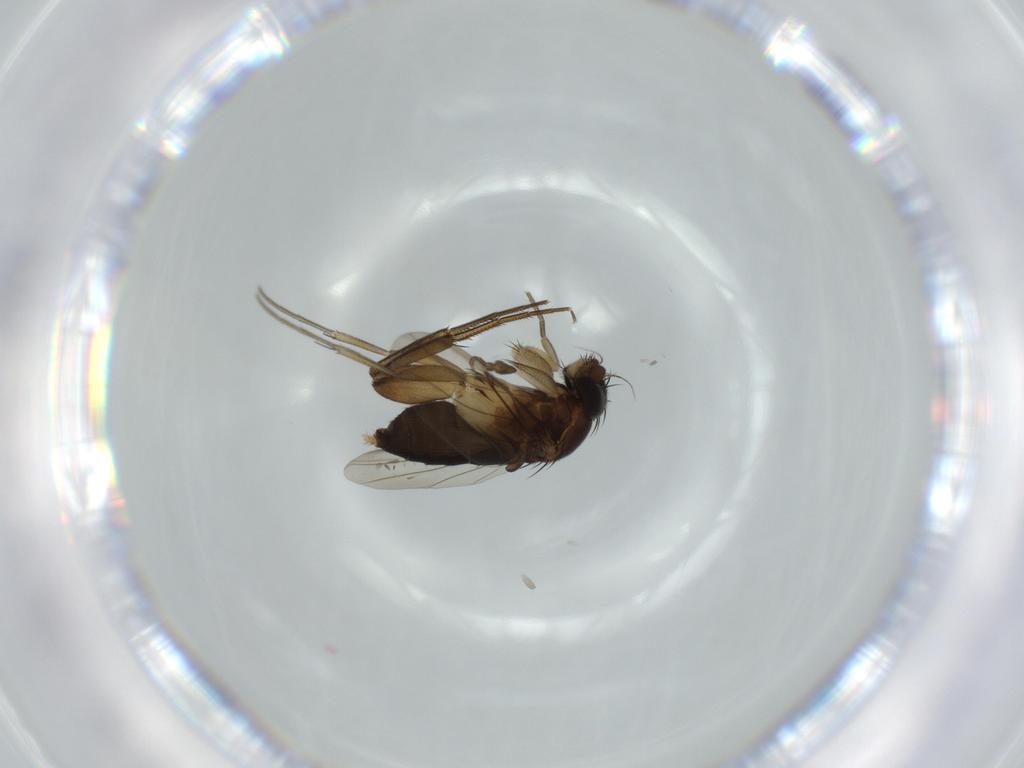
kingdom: Animalia
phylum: Arthropoda
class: Insecta
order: Diptera
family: Phoridae
